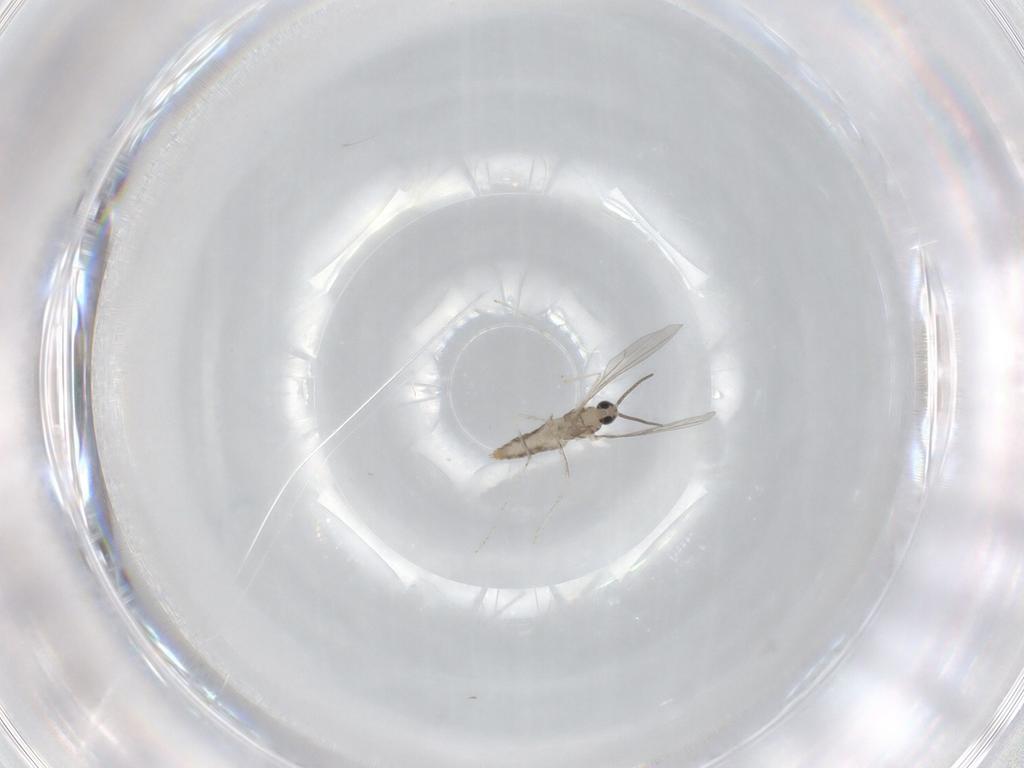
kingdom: Animalia
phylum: Arthropoda
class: Insecta
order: Diptera
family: Cecidomyiidae
